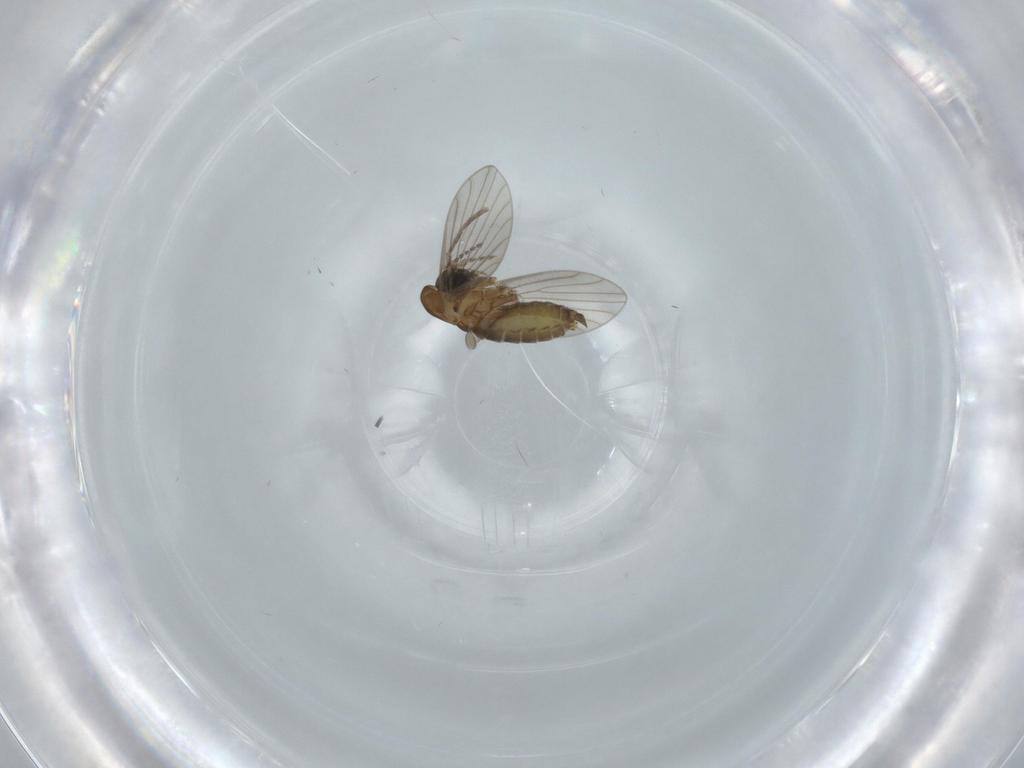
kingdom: Animalia
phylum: Arthropoda
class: Insecta
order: Diptera
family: Psychodidae
